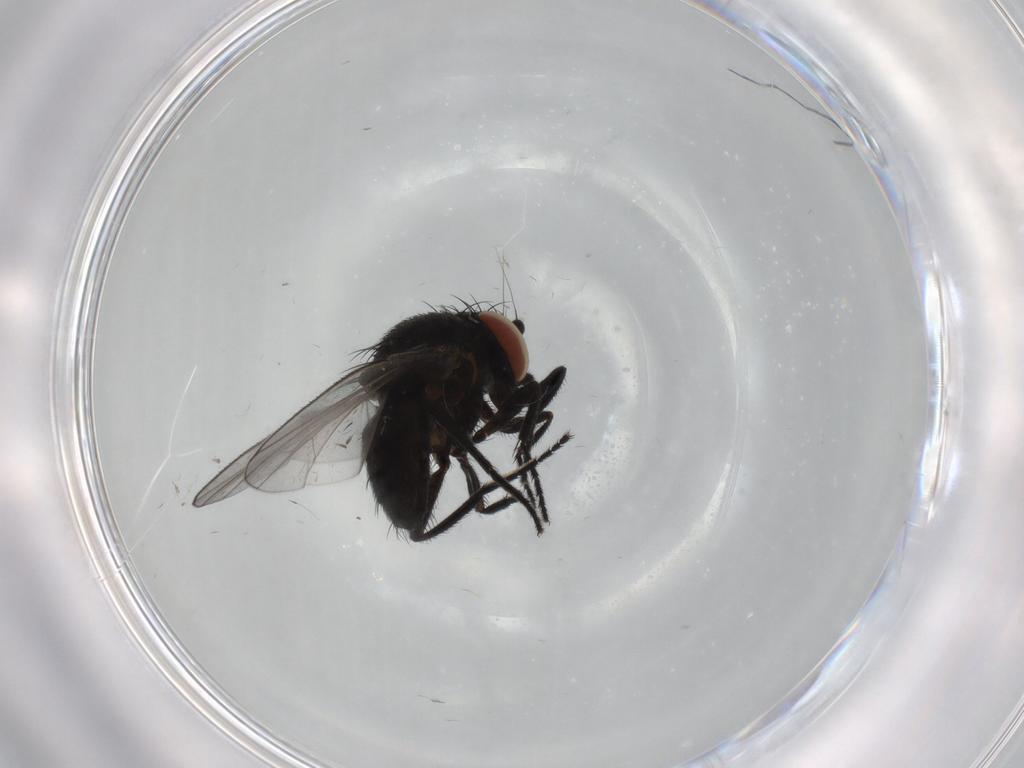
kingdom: Animalia
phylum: Arthropoda
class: Insecta
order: Diptera
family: Milichiidae
